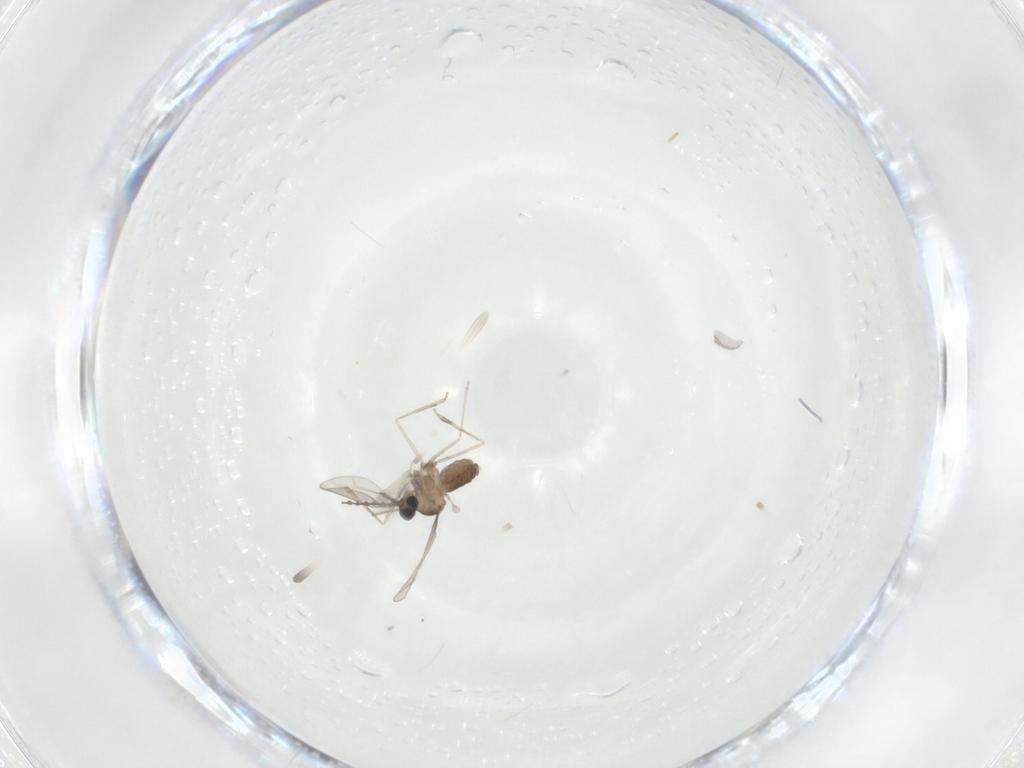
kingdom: Animalia
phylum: Arthropoda
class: Insecta
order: Diptera
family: Cecidomyiidae
